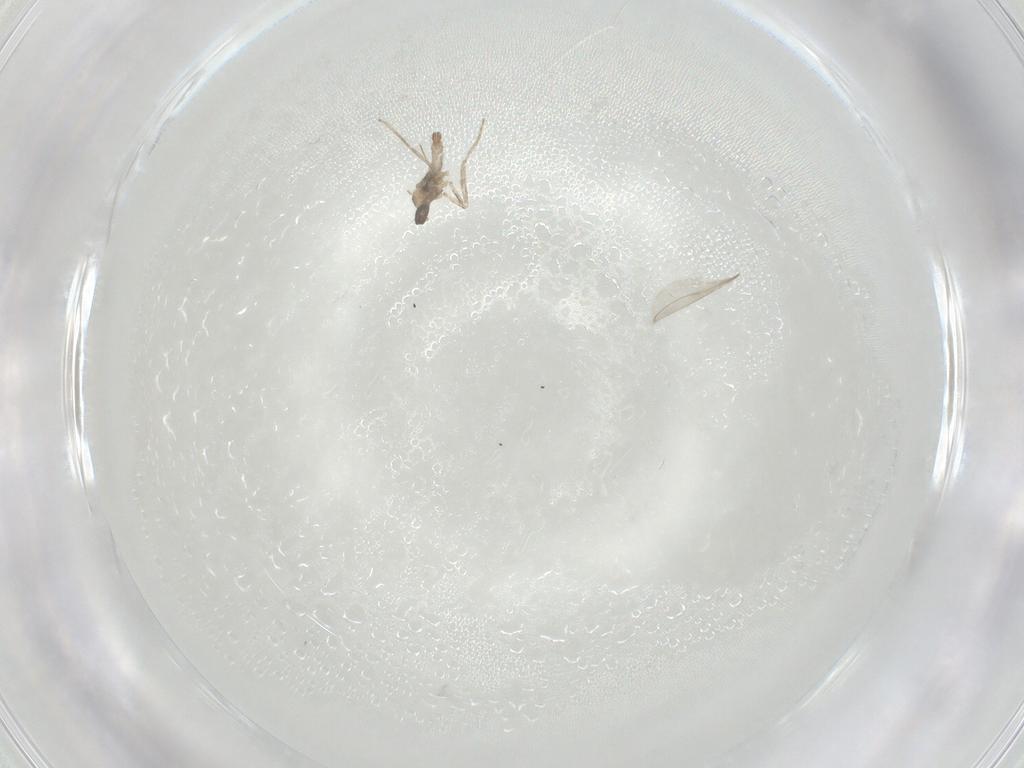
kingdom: Animalia
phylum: Arthropoda
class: Insecta
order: Diptera
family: Cecidomyiidae
